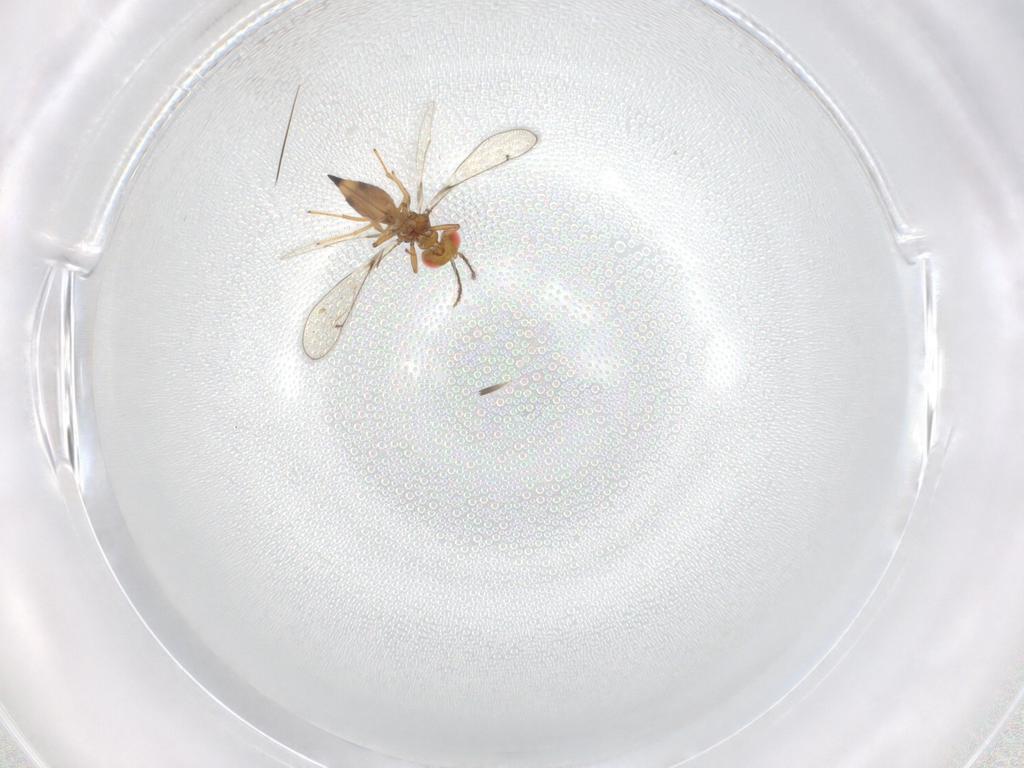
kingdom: Animalia
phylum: Arthropoda
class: Insecta
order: Hymenoptera
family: Eulophidae
